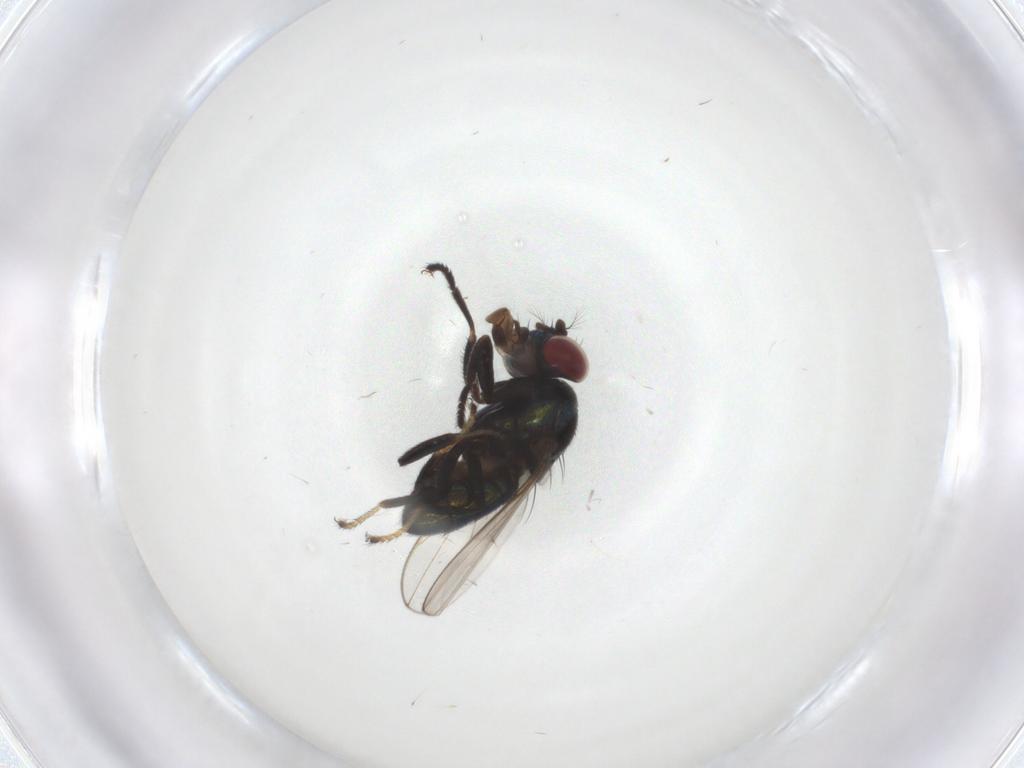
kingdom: Animalia
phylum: Arthropoda
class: Insecta
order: Diptera
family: Ephydridae
